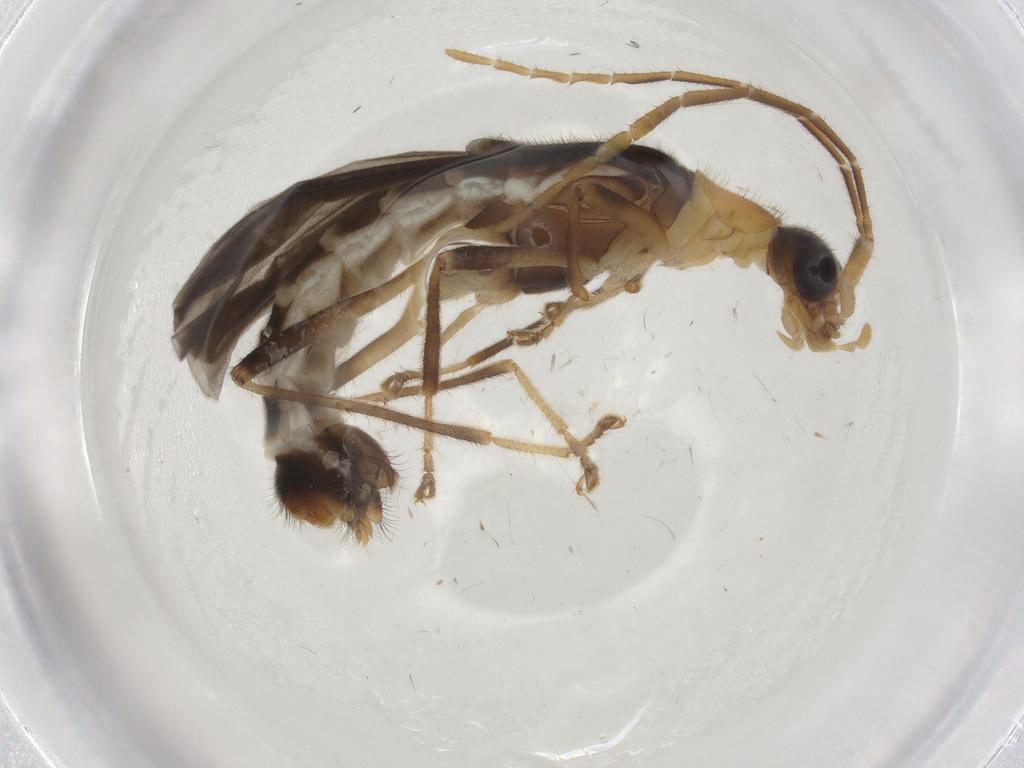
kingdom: Animalia
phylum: Arthropoda
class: Insecta
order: Coleoptera
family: Cantharidae
